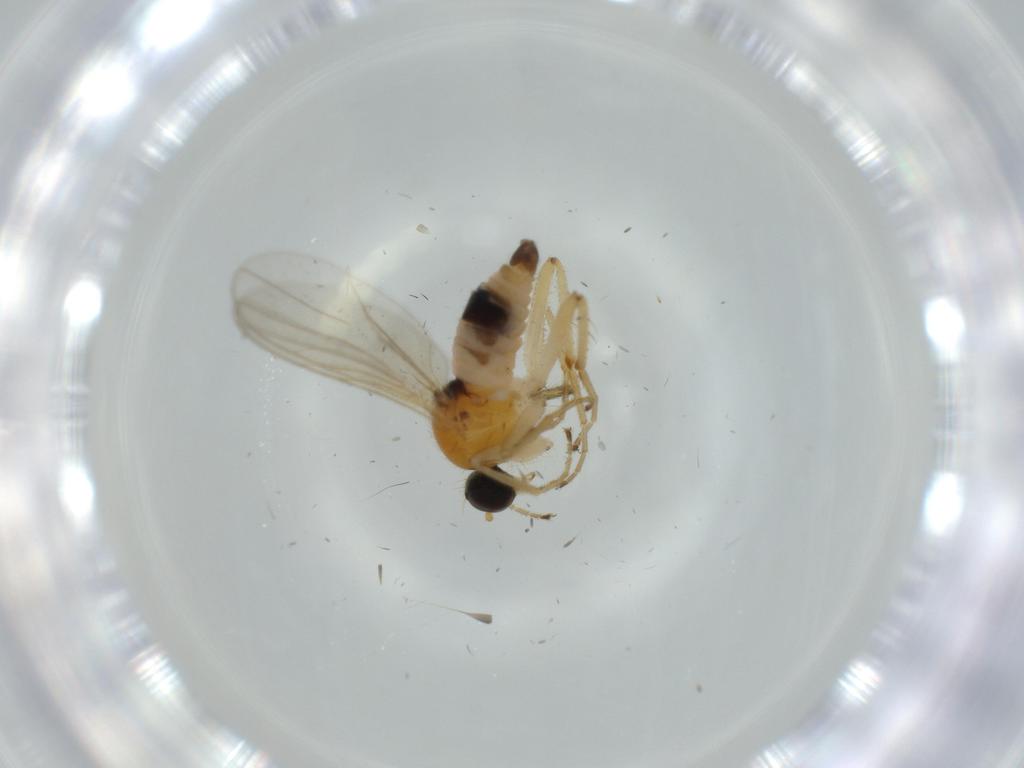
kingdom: Animalia
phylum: Arthropoda
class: Insecta
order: Diptera
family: Hybotidae
